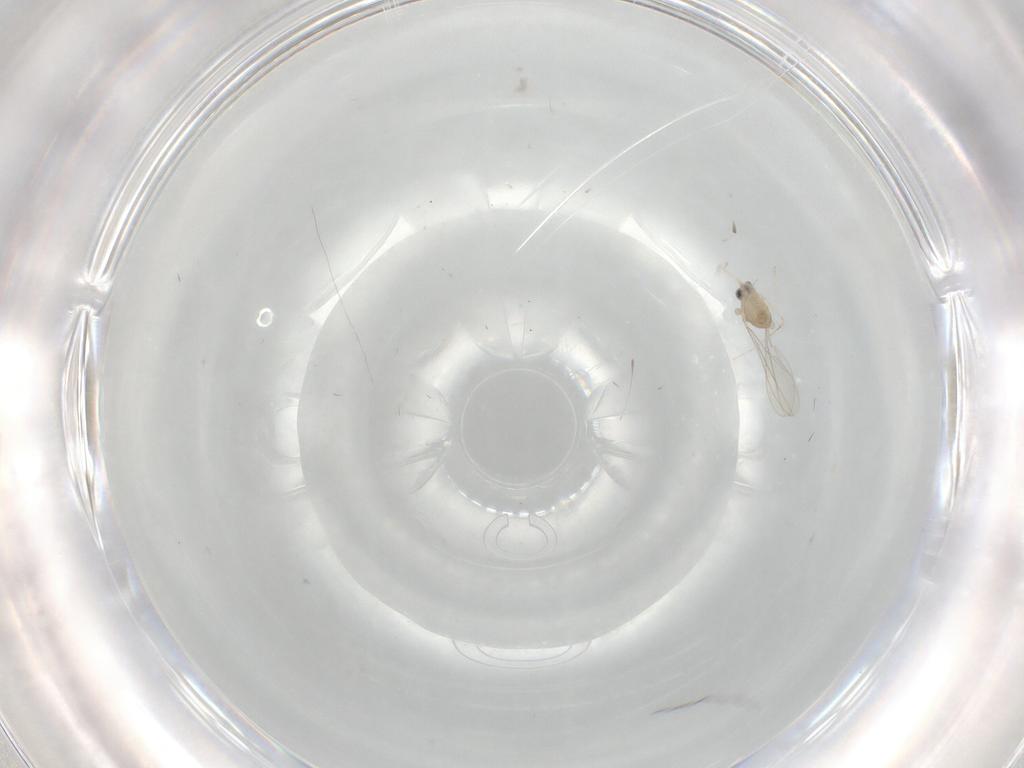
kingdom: Animalia
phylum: Arthropoda
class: Insecta
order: Diptera
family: Cecidomyiidae
